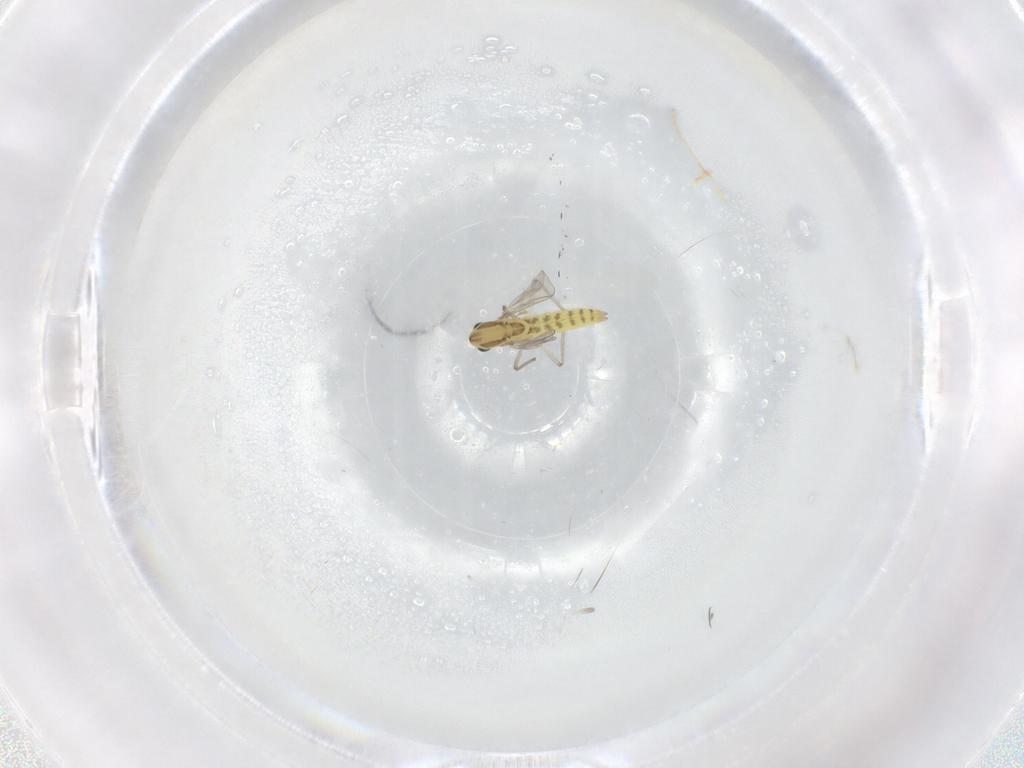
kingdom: Animalia
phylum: Arthropoda
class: Insecta
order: Diptera
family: Chironomidae
